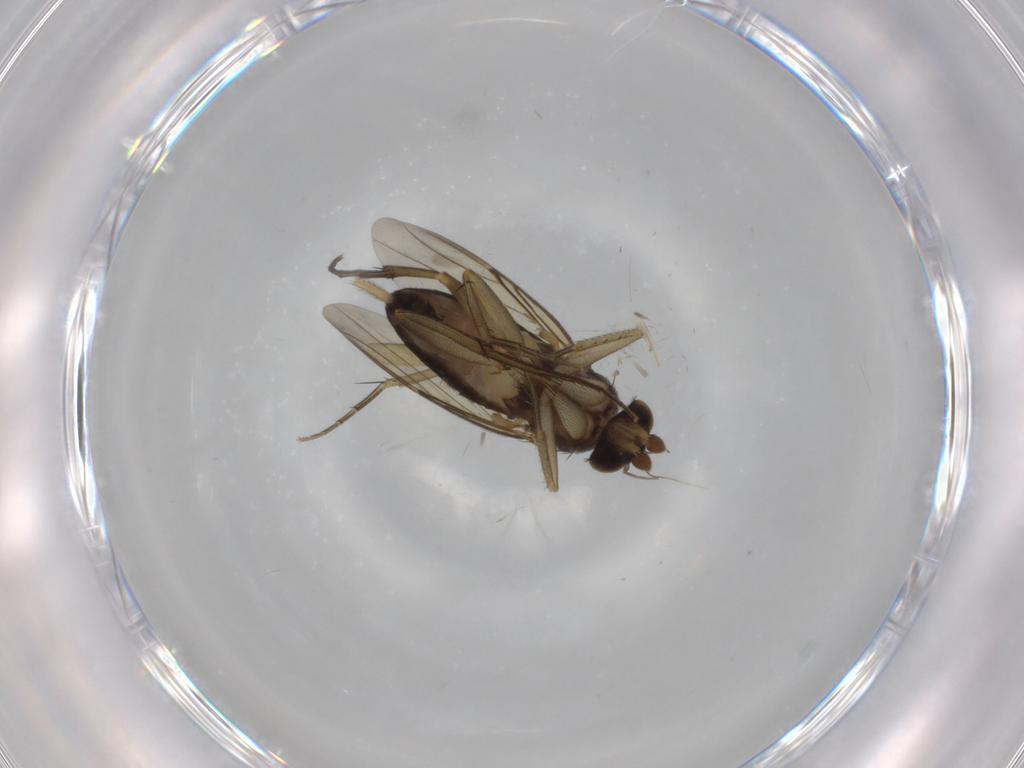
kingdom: Animalia
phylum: Arthropoda
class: Insecta
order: Diptera
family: Phoridae
